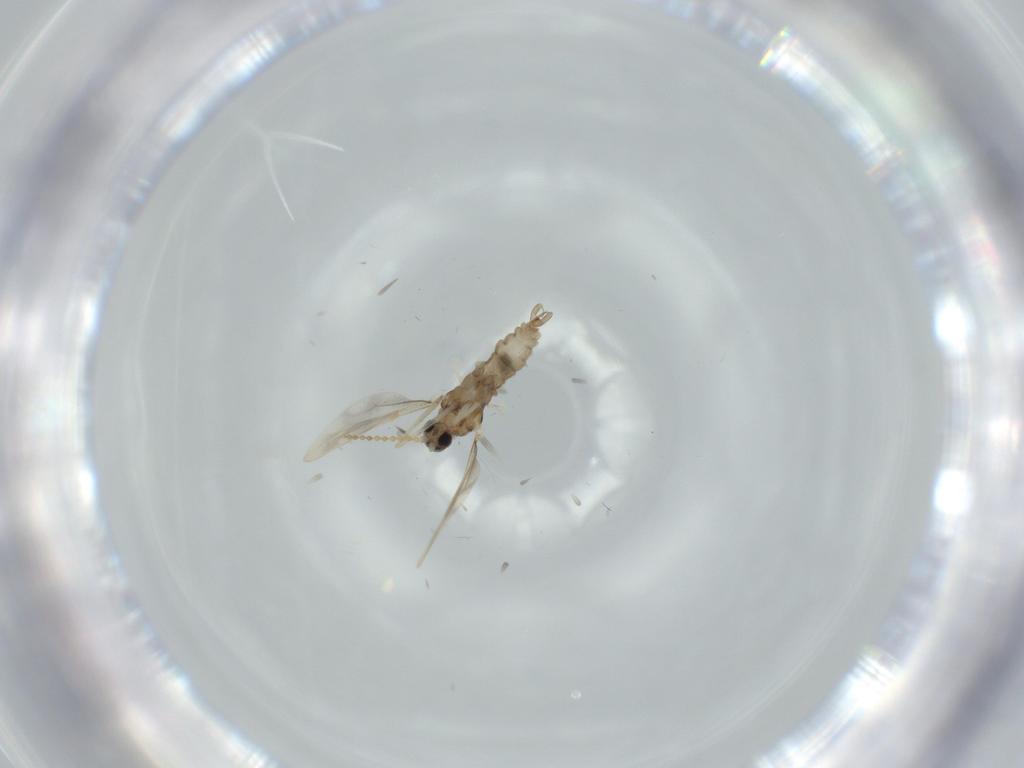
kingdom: Animalia
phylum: Arthropoda
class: Insecta
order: Diptera
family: Cecidomyiidae
